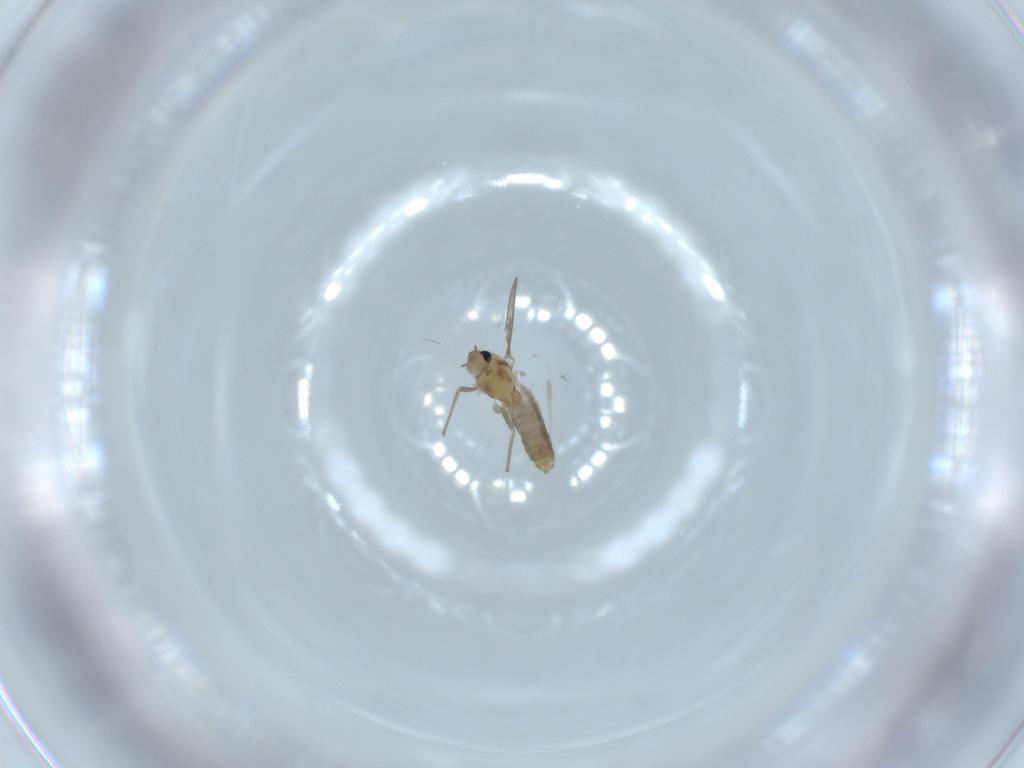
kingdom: Animalia
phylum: Arthropoda
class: Insecta
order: Diptera
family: Chironomidae
